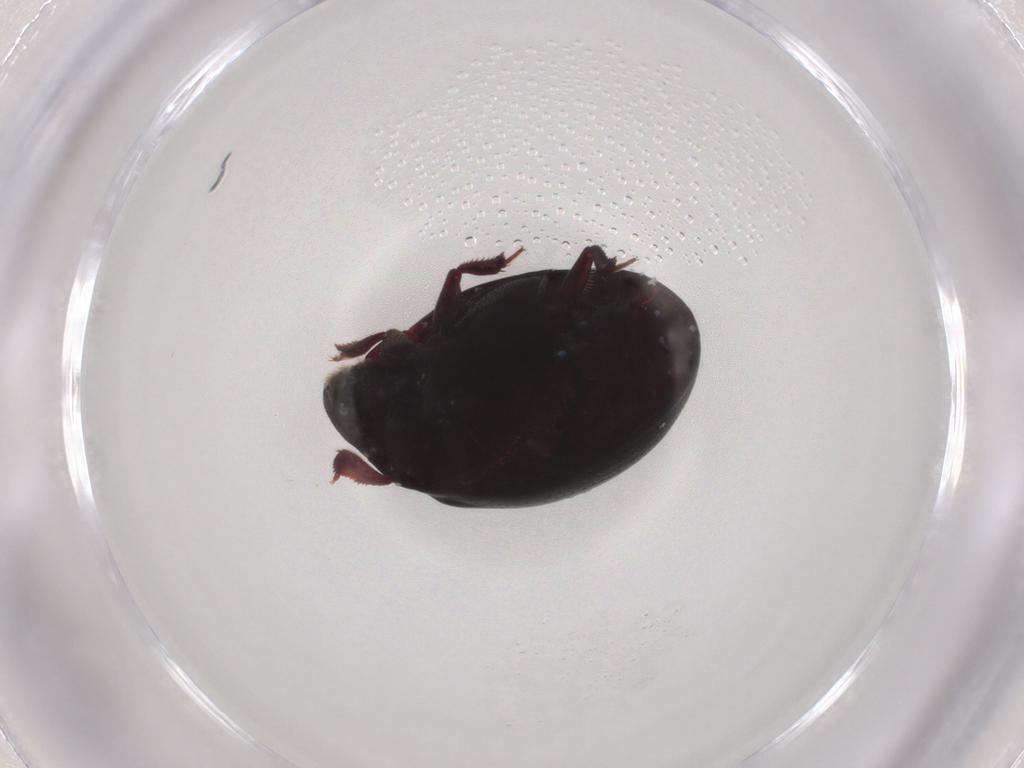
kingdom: Animalia
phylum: Arthropoda
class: Insecta
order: Coleoptera
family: Nosodendridae
